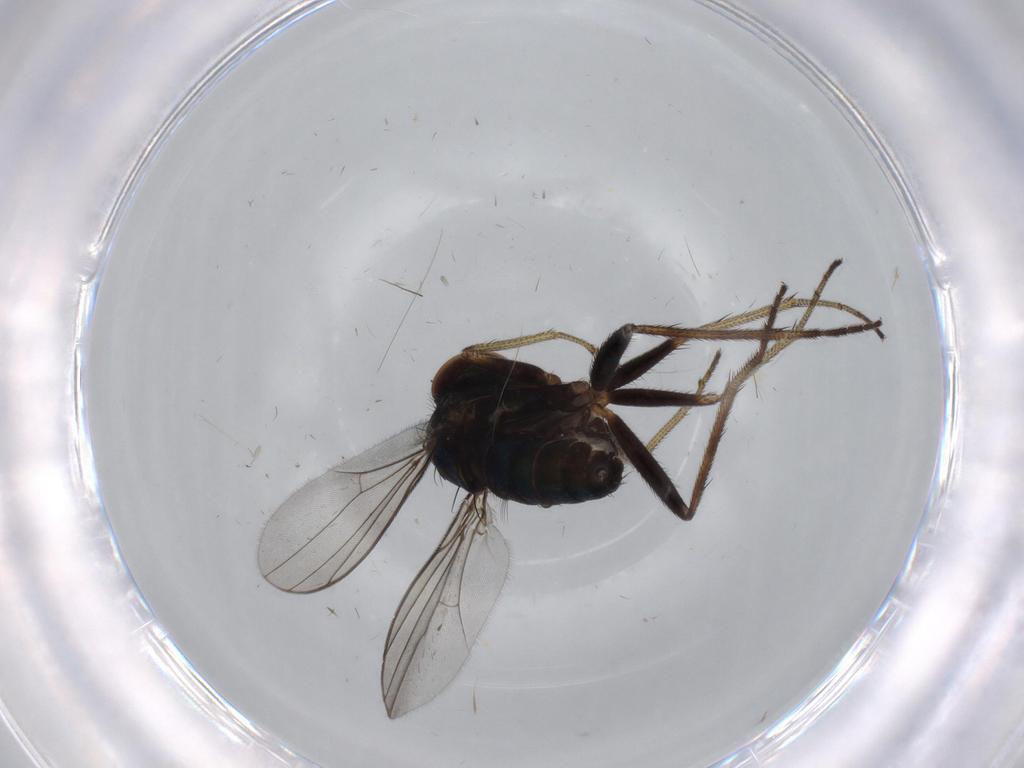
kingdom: Animalia
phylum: Arthropoda
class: Insecta
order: Diptera
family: Dolichopodidae
